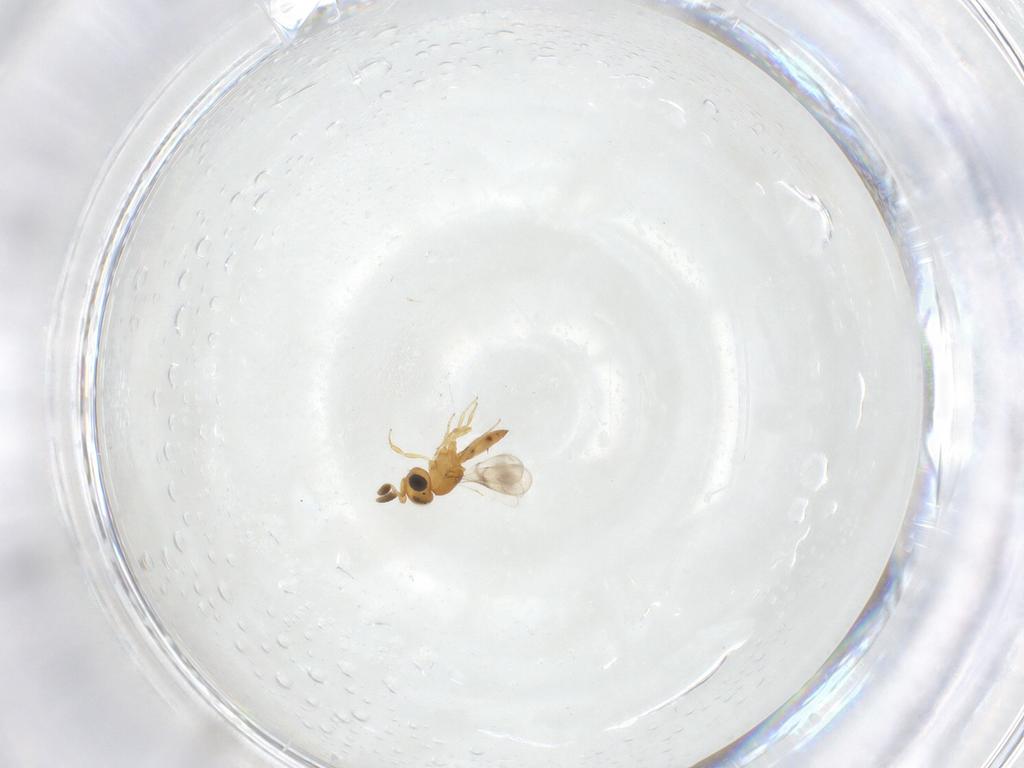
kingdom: Animalia
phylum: Arthropoda
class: Insecta
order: Hymenoptera
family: Scelionidae
